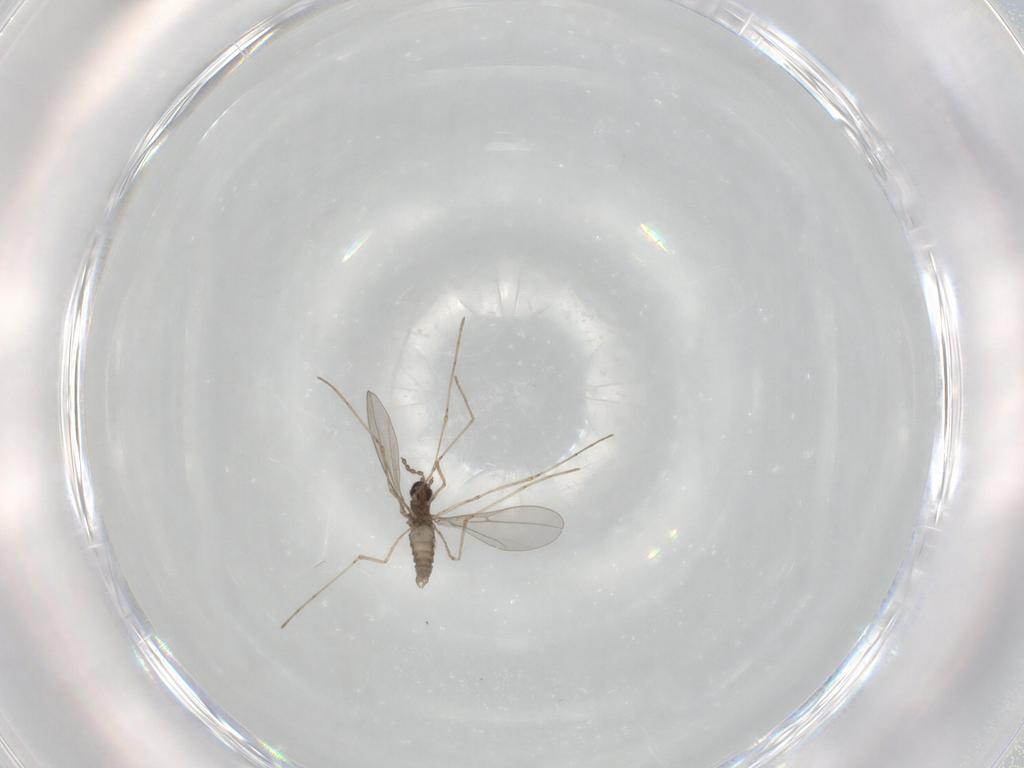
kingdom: Animalia
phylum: Arthropoda
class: Insecta
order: Diptera
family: Cecidomyiidae
